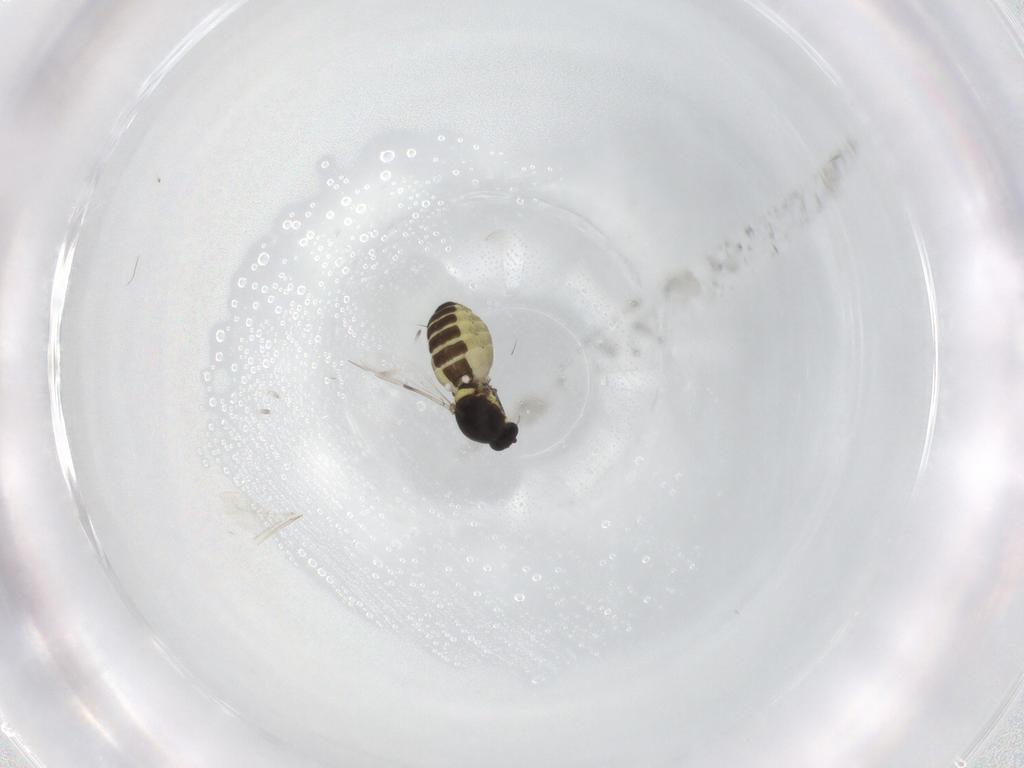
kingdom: Animalia
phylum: Arthropoda
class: Insecta
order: Diptera
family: Ceratopogonidae
